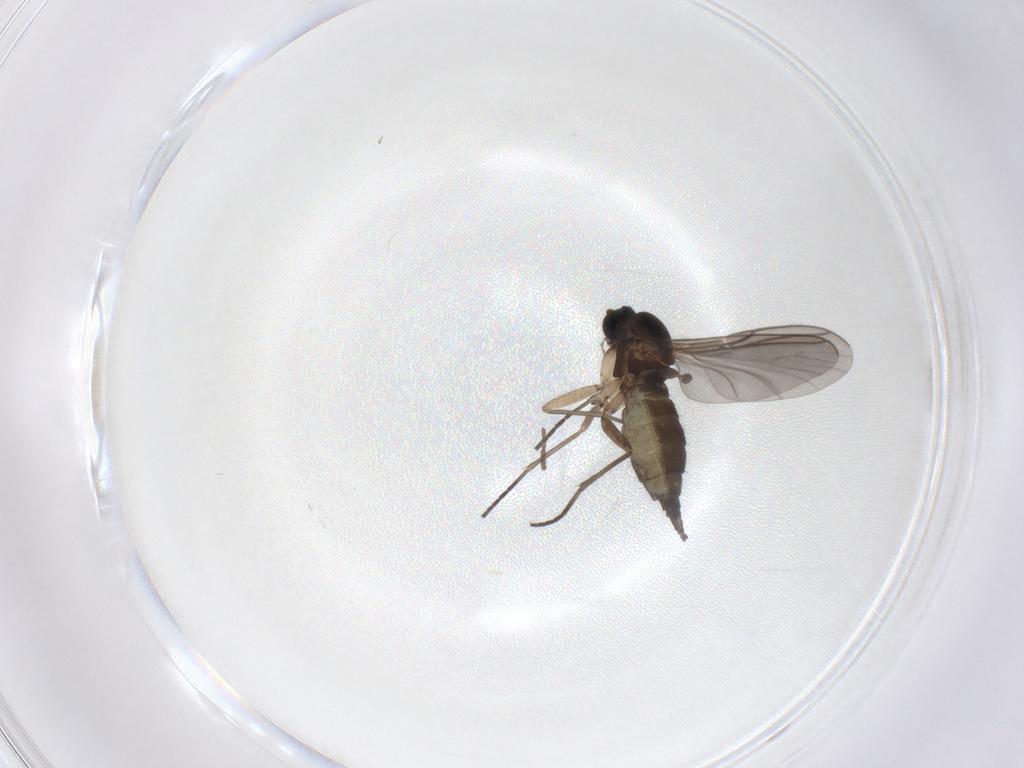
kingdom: Animalia
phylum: Arthropoda
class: Insecta
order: Diptera
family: Sciaridae
